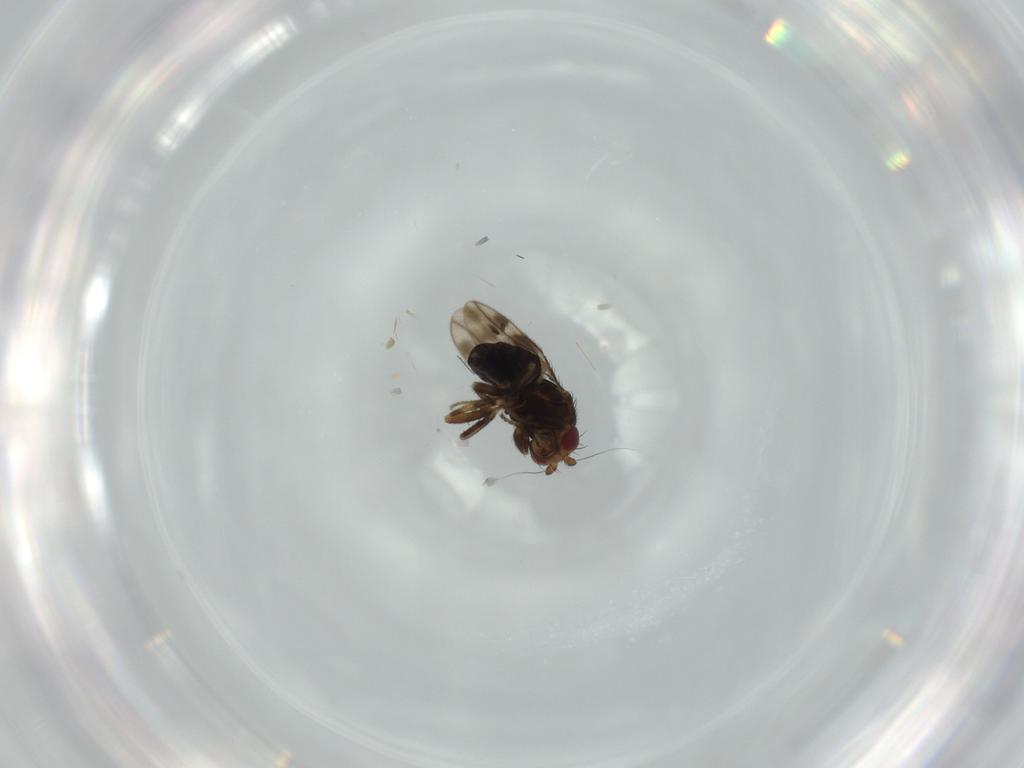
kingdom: Animalia
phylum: Arthropoda
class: Insecta
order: Diptera
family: Sphaeroceridae
